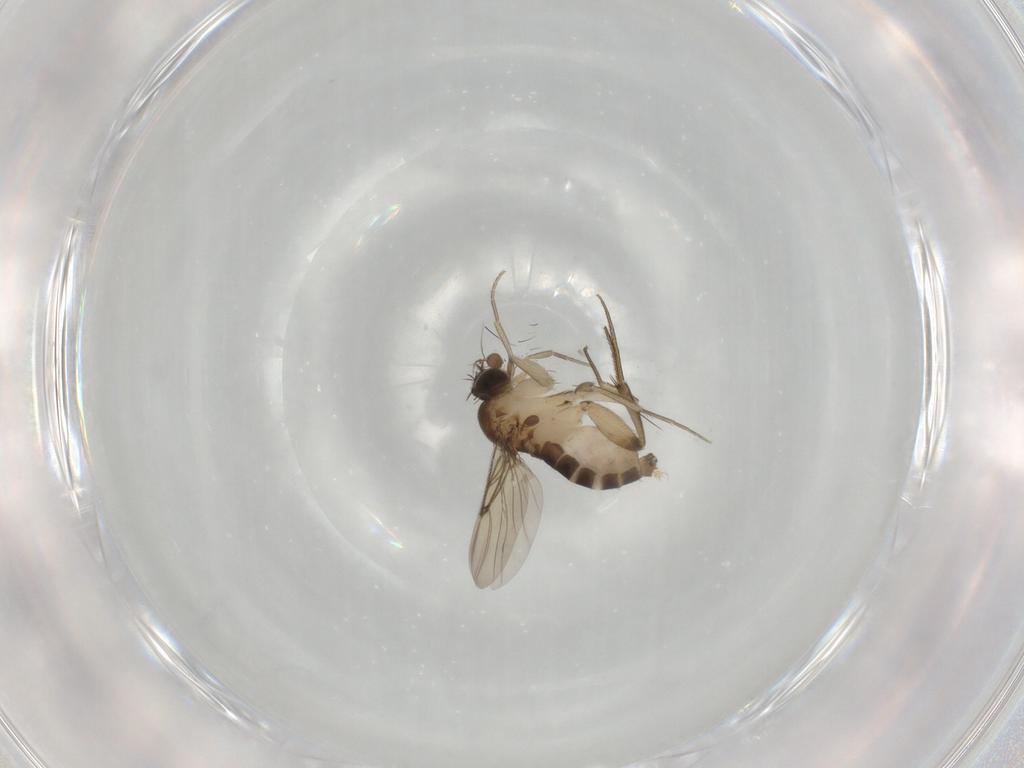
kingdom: Animalia
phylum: Arthropoda
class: Insecta
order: Diptera
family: Phoridae
